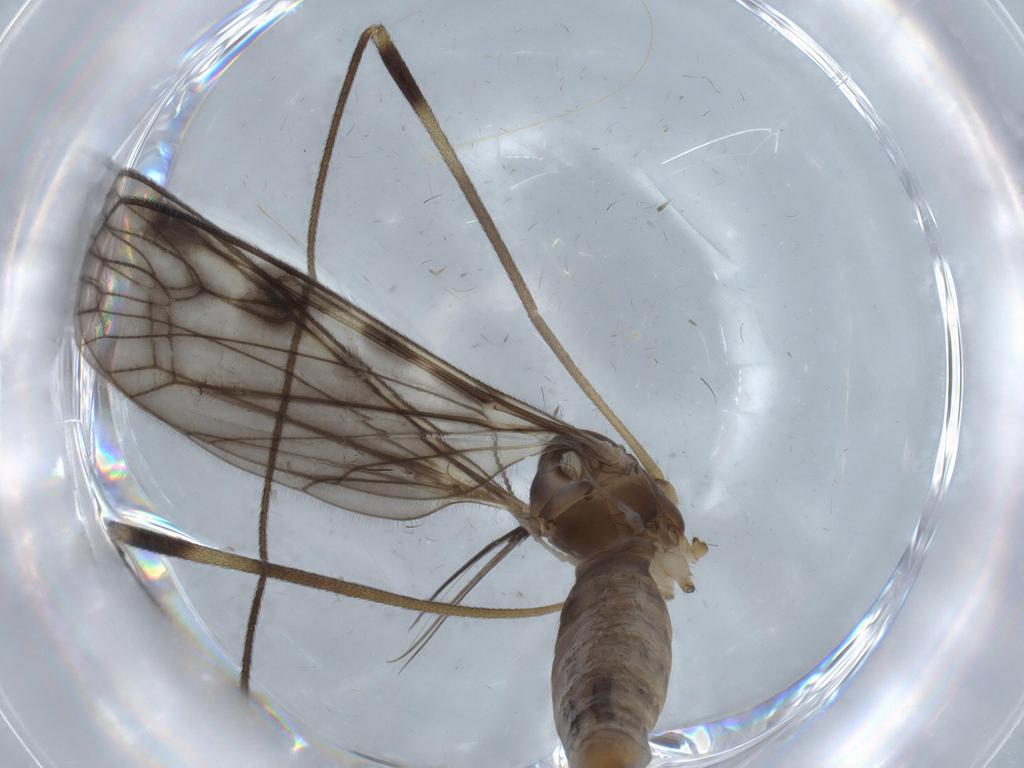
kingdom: Animalia
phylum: Arthropoda
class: Insecta
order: Diptera
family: Limoniidae
